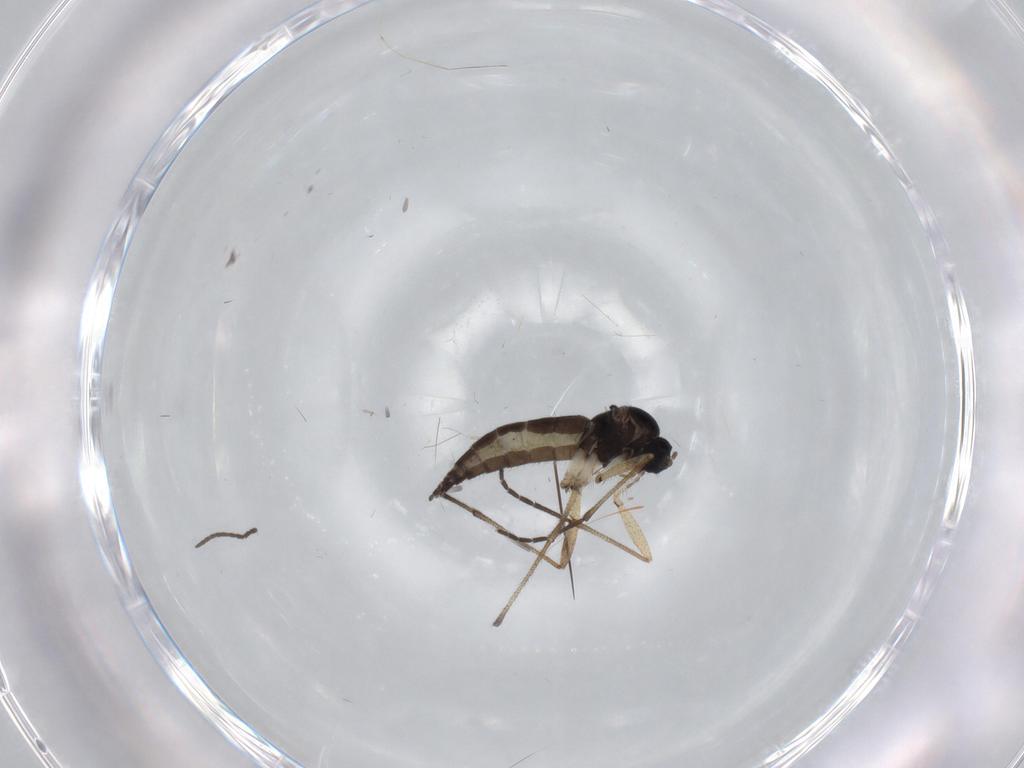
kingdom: Animalia
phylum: Arthropoda
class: Insecta
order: Diptera
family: Sciaridae
